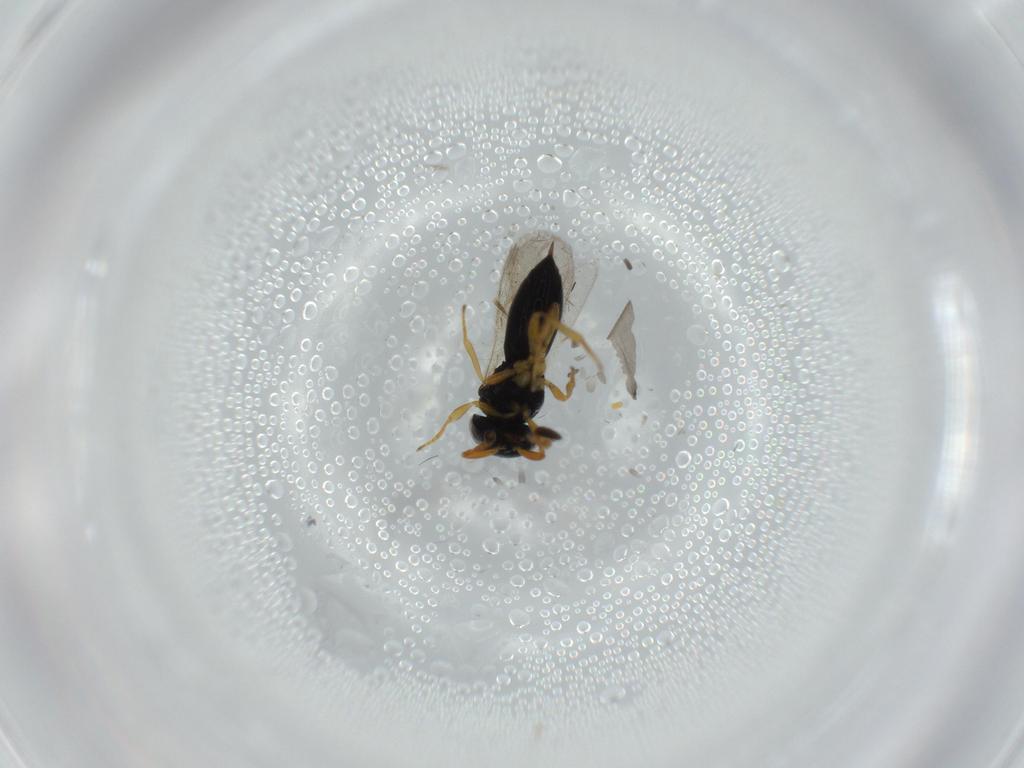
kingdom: Animalia
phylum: Arthropoda
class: Insecta
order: Hymenoptera
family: Scelionidae
